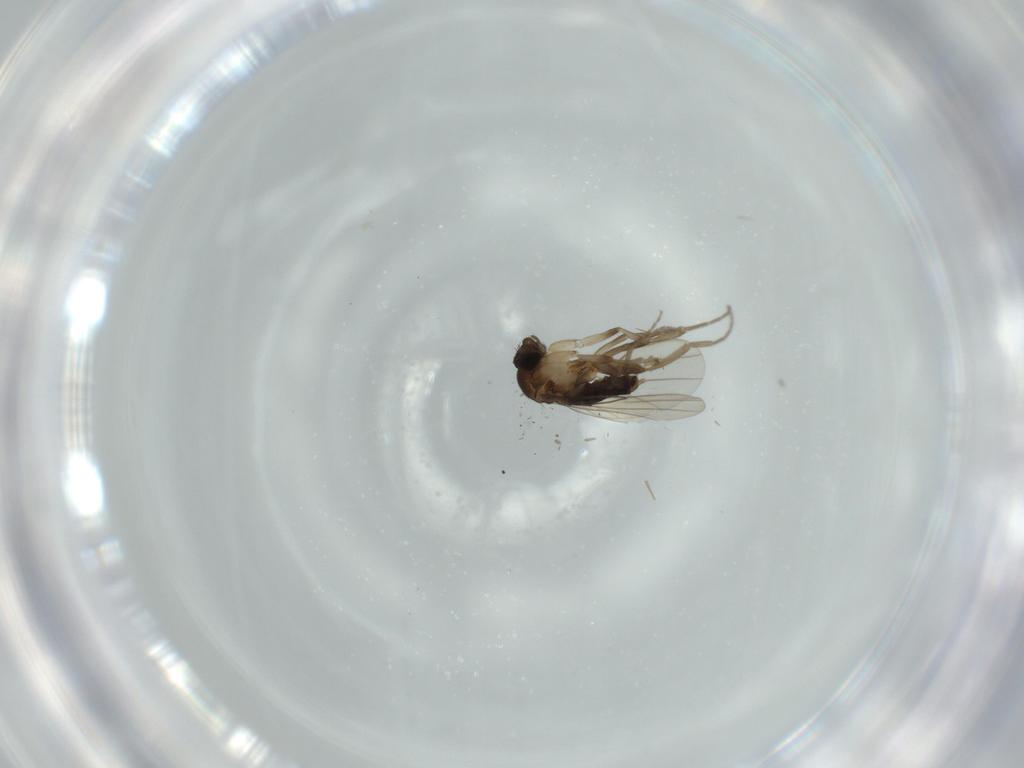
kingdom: Animalia
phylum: Arthropoda
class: Insecta
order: Diptera
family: Phoridae
